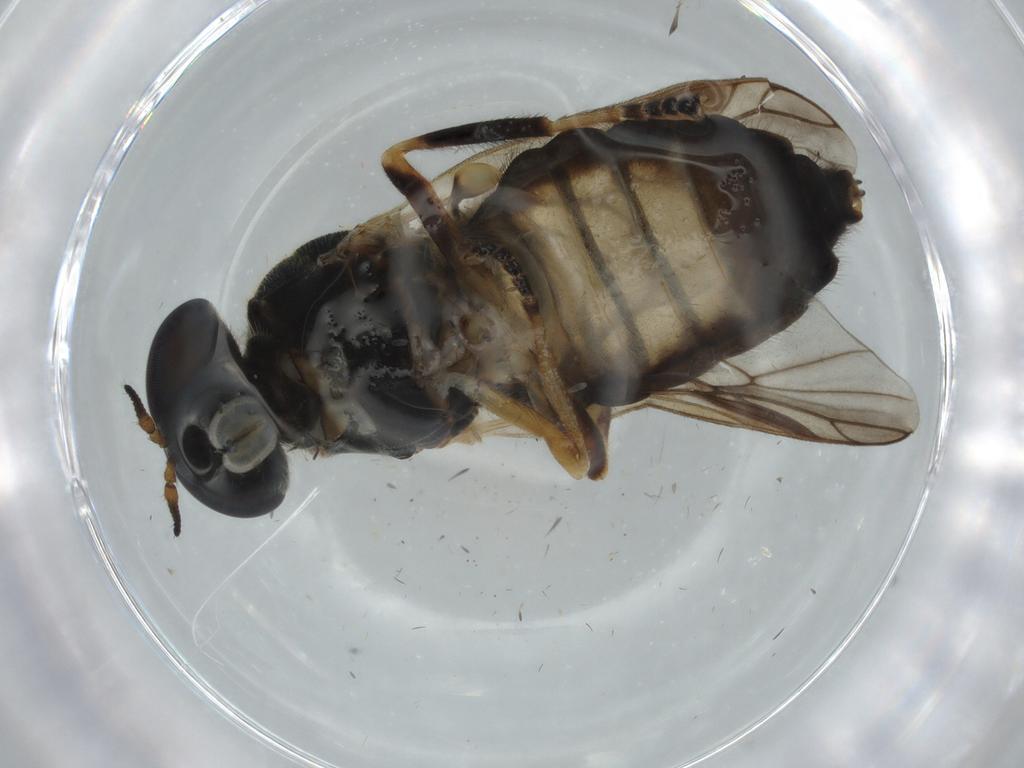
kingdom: Animalia
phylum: Arthropoda
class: Insecta
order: Diptera
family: Sciaridae
